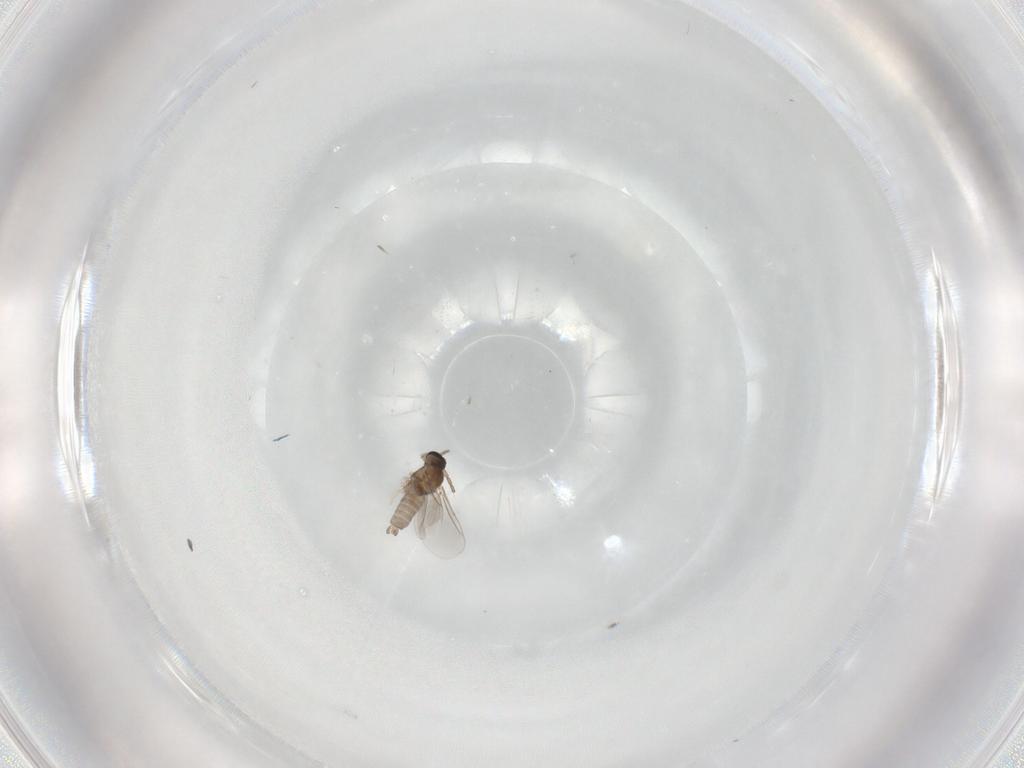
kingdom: Animalia
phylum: Arthropoda
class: Insecta
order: Diptera
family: Cecidomyiidae
